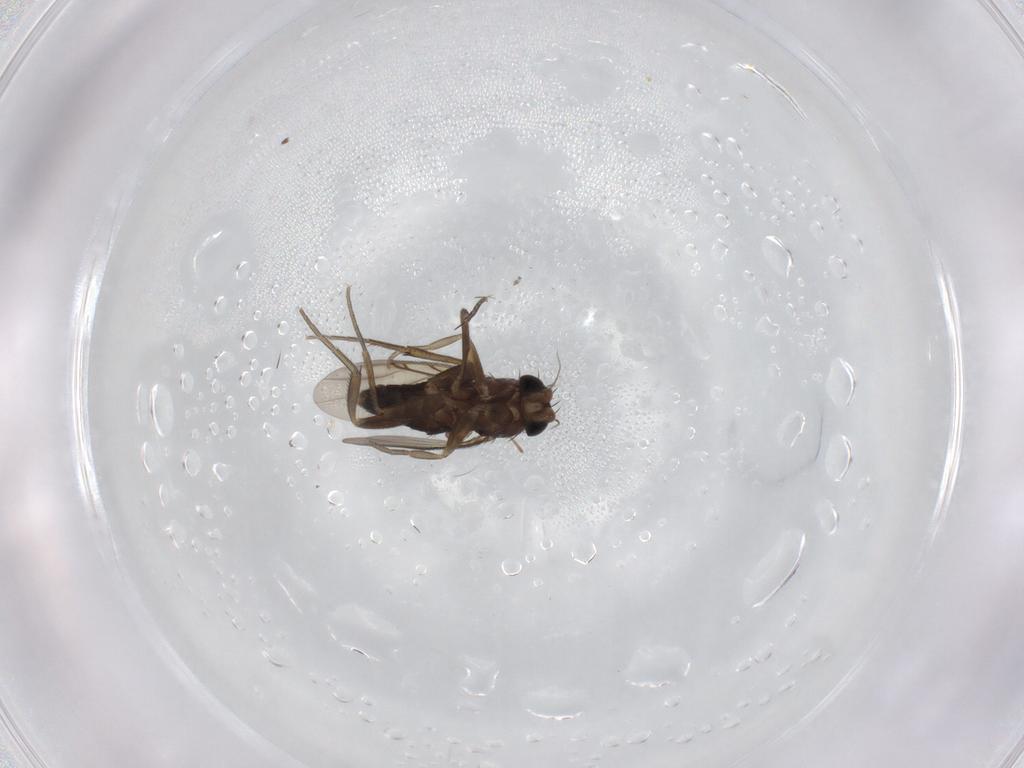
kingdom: Animalia
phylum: Arthropoda
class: Insecta
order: Diptera
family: Phoridae
